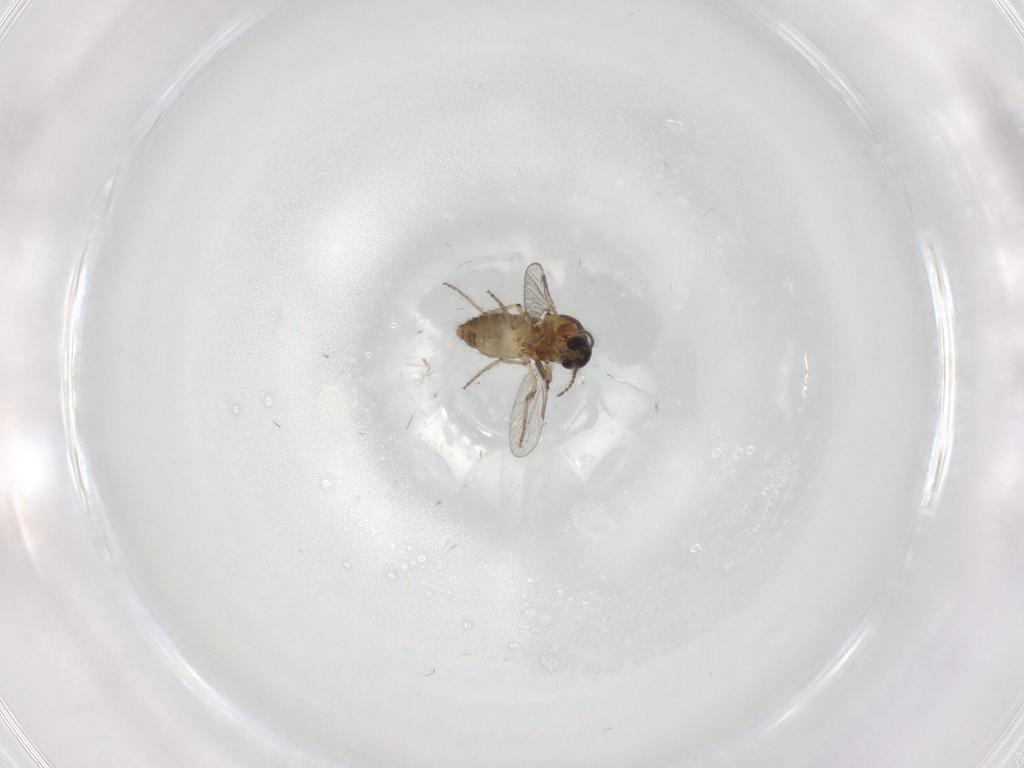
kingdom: Animalia
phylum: Arthropoda
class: Insecta
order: Diptera
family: Ceratopogonidae
